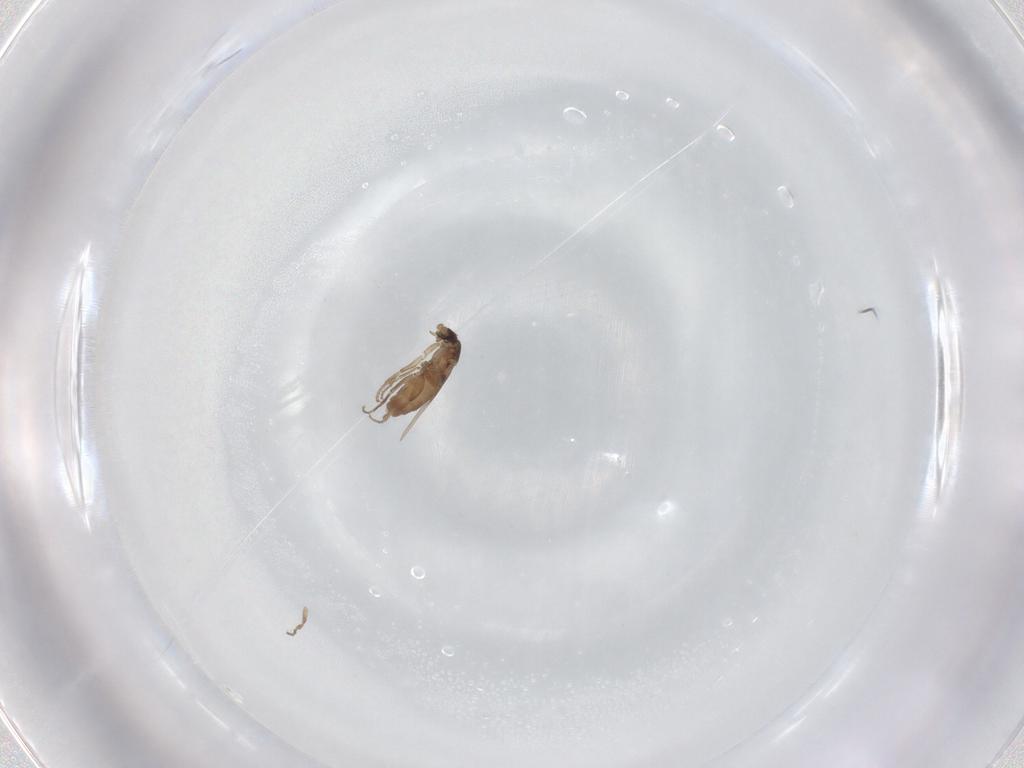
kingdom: Animalia
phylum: Arthropoda
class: Insecta
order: Diptera
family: Phoridae
